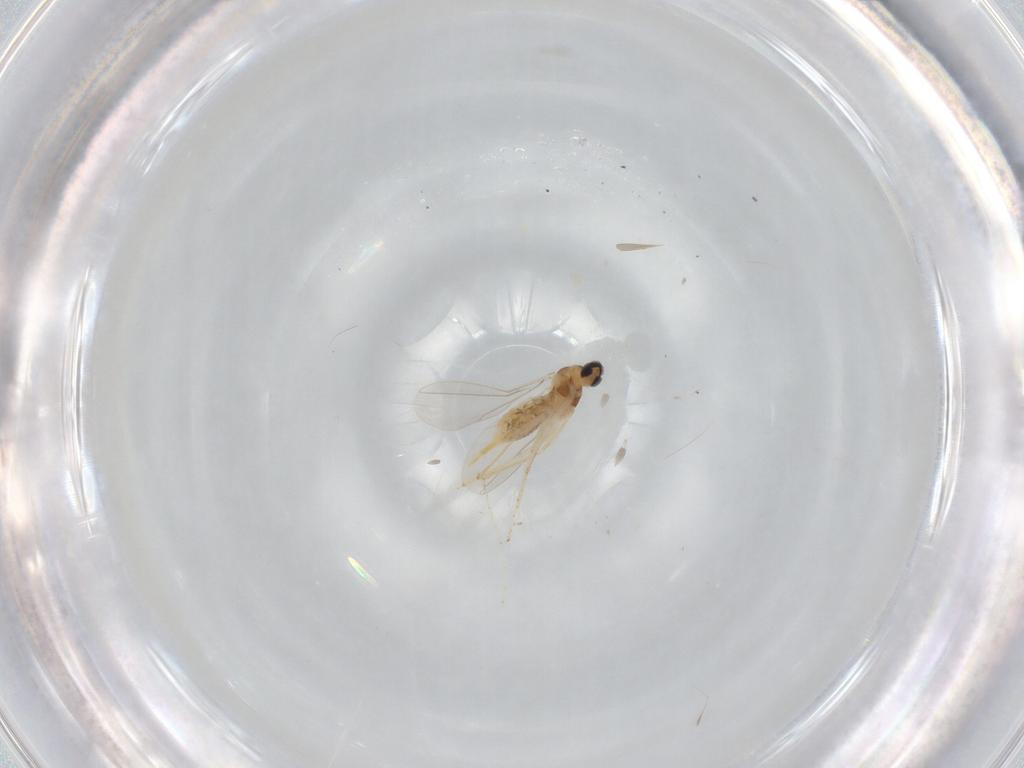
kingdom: Animalia
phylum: Arthropoda
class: Insecta
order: Diptera
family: Cecidomyiidae
